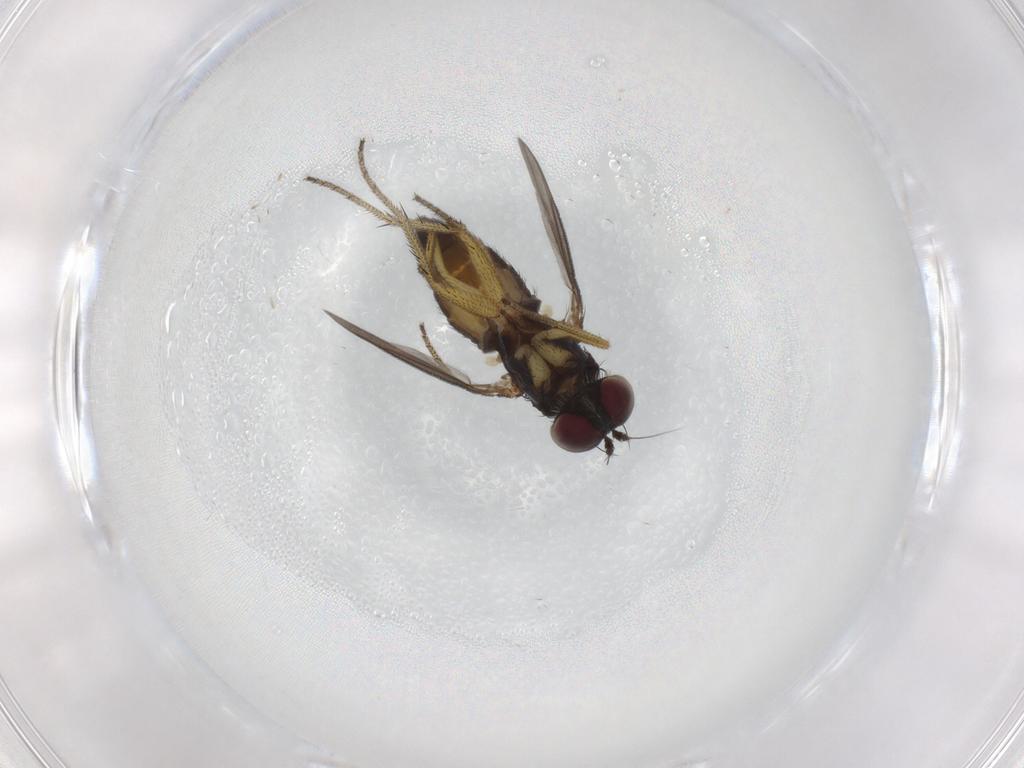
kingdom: Animalia
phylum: Arthropoda
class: Insecta
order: Diptera
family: Dolichopodidae
